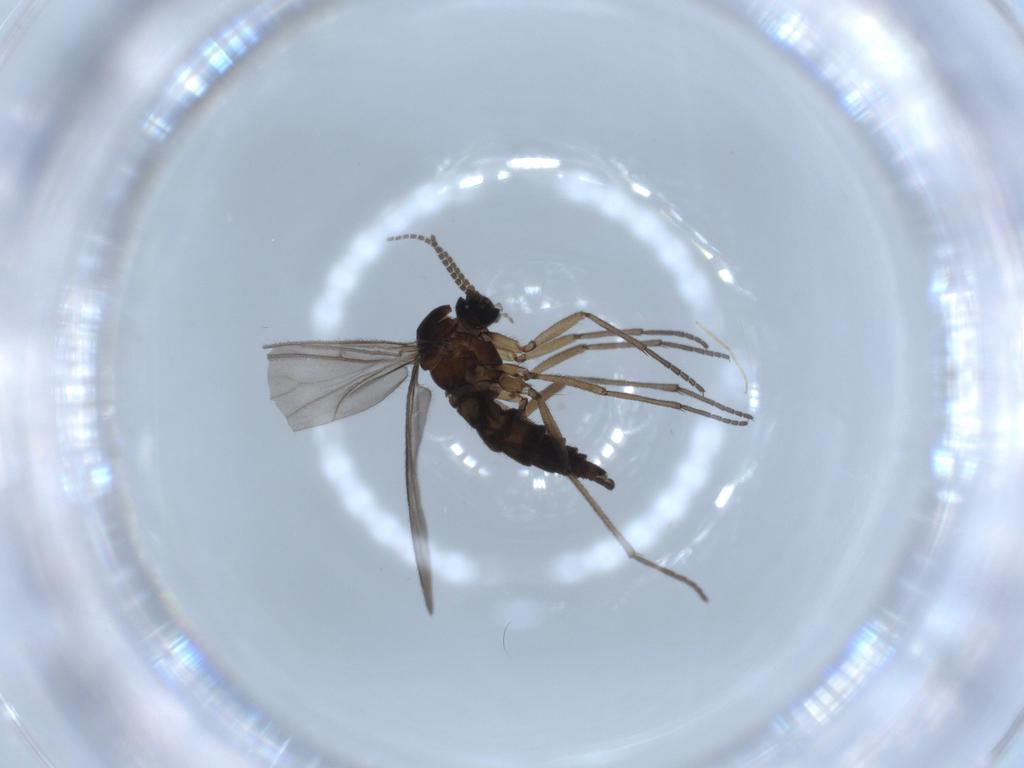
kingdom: Animalia
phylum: Arthropoda
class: Insecta
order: Diptera
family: Sciaridae
